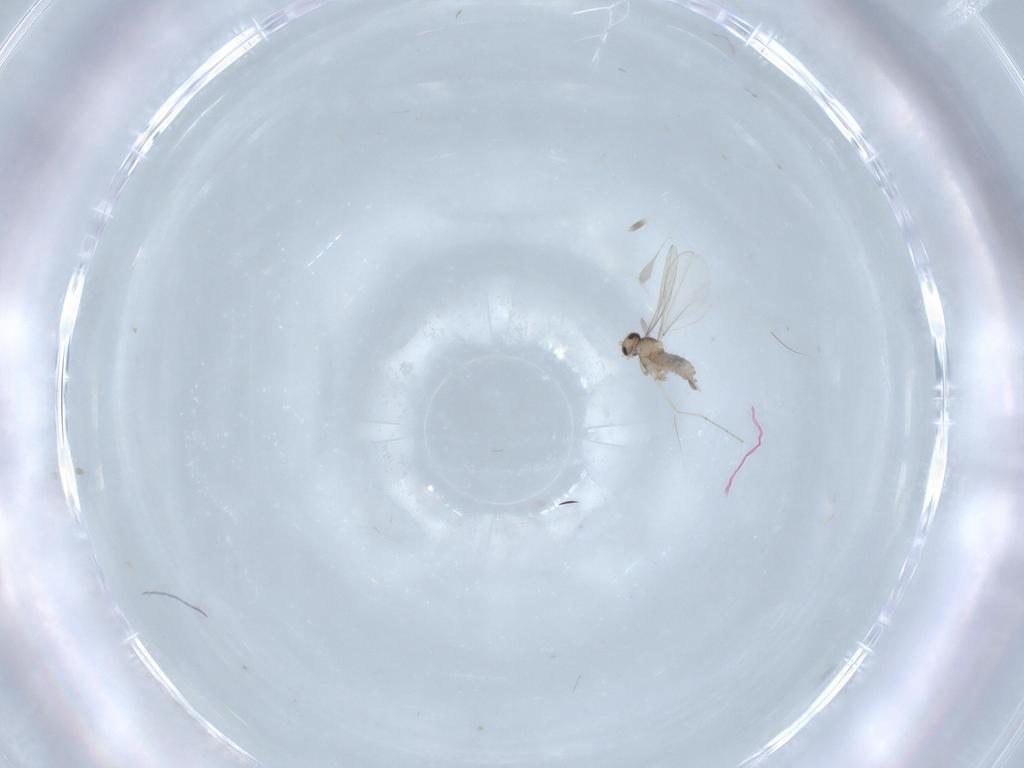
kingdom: Animalia
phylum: Arthropoda
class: Insecta
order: Diptera
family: Cecidomyiidae
